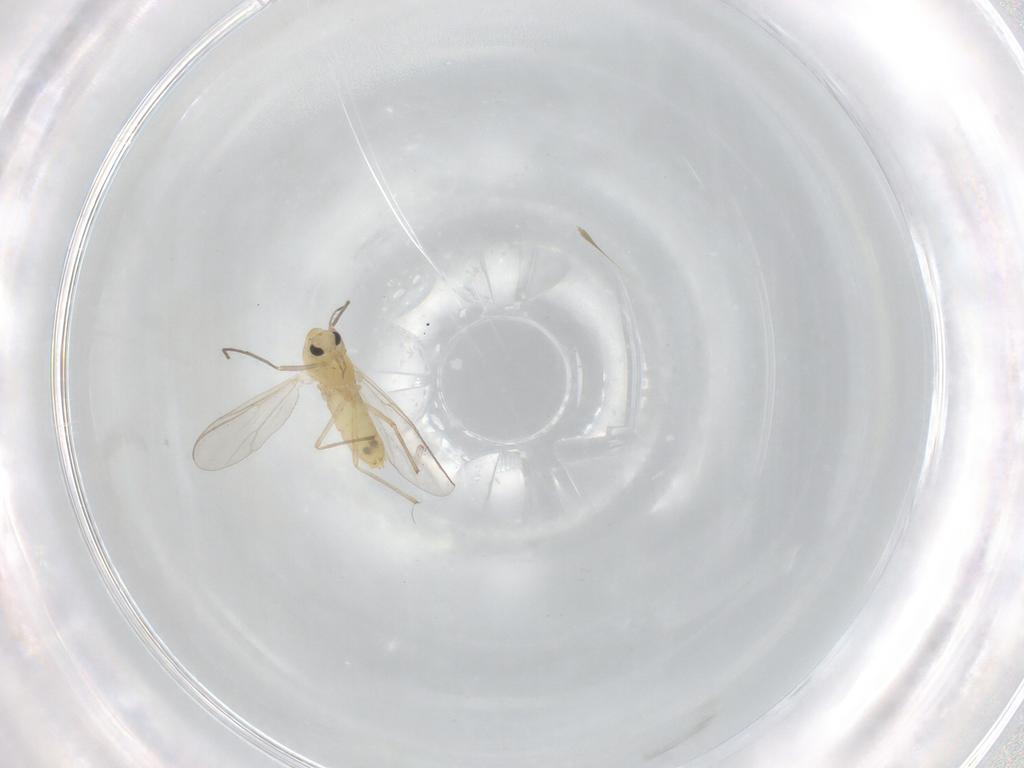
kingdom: Animalia
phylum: Arthropoda
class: Insecta
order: Diptera
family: Chironomidae
